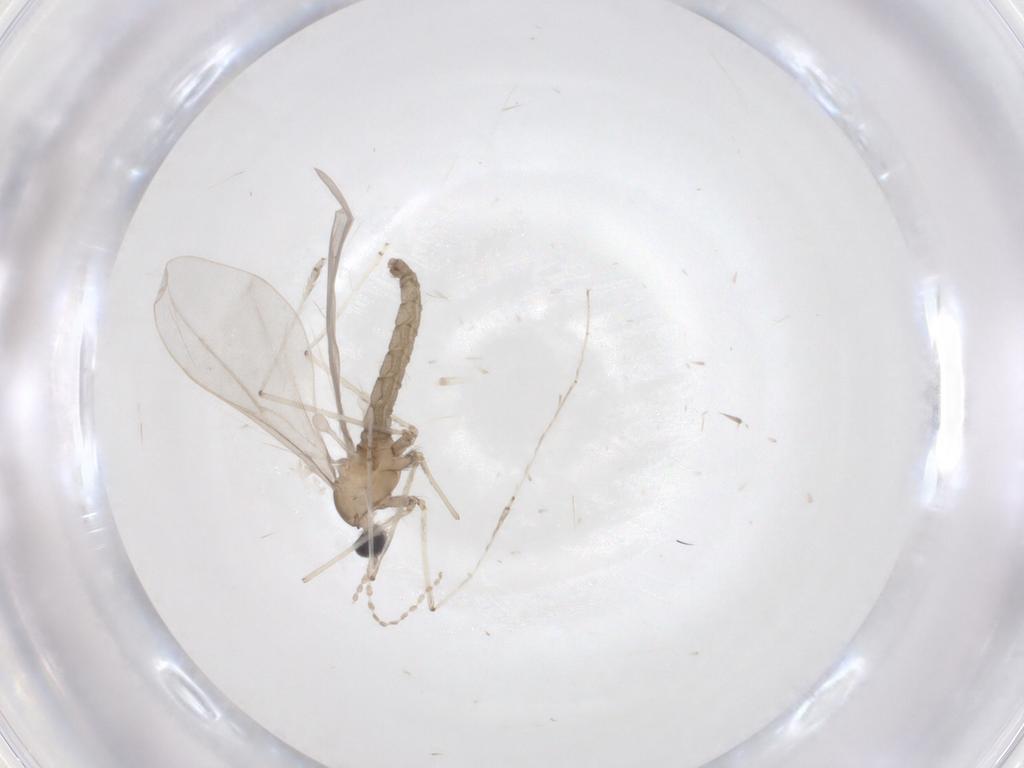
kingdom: Animalia
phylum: Arthropoda
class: Insecta
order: Diptera
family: Cecidomyiidae
